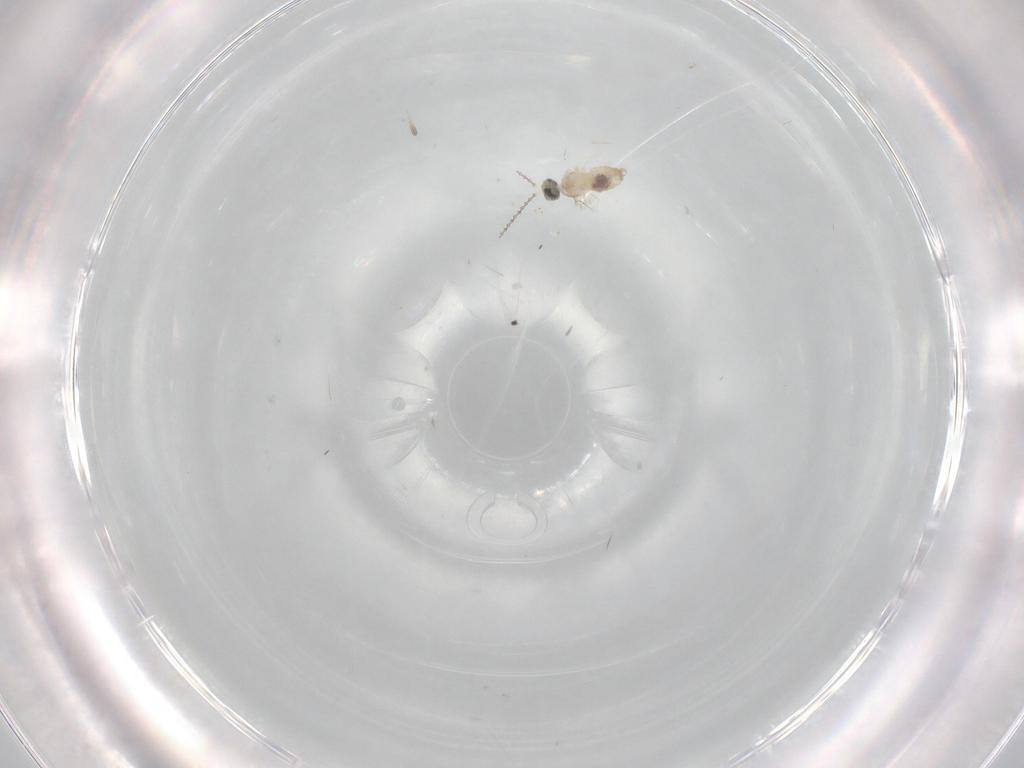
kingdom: Animalia
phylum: Arthropoda
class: Insecta
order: Diptera
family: Cecidomyiidae
